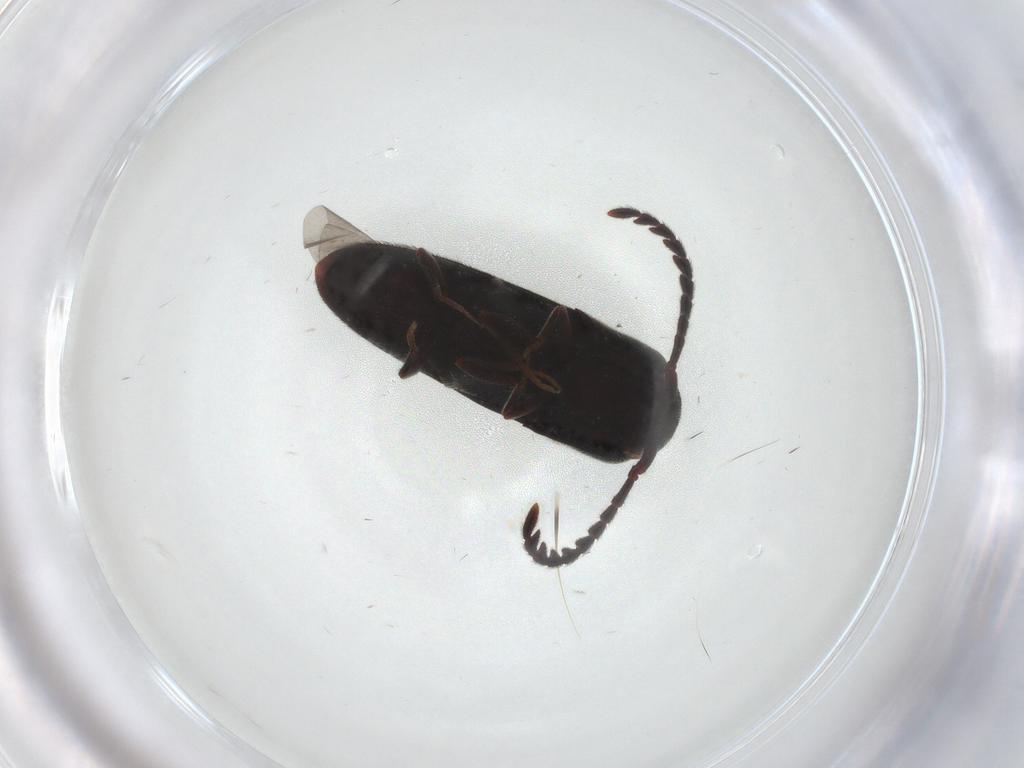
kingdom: Animalia
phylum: Arthropoda
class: Insecta
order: Coleoptera
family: Eucnemidae
